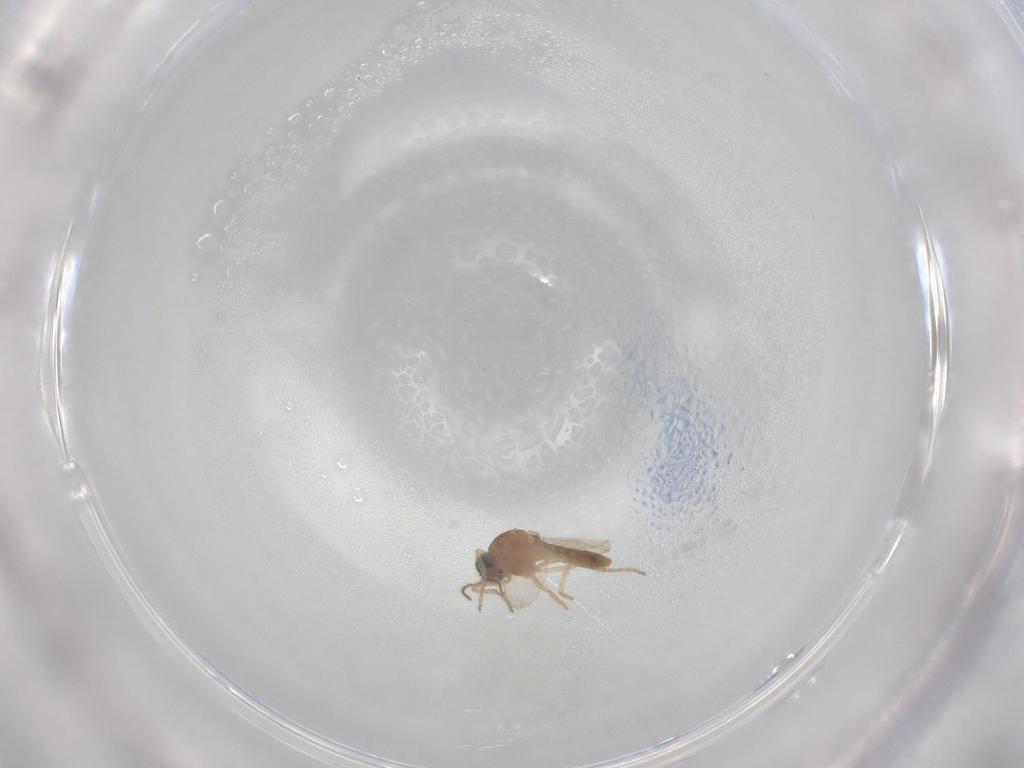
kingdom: Animalia
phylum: Arthropoda
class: Insecta
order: Diptera
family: Ceratopogonidae
